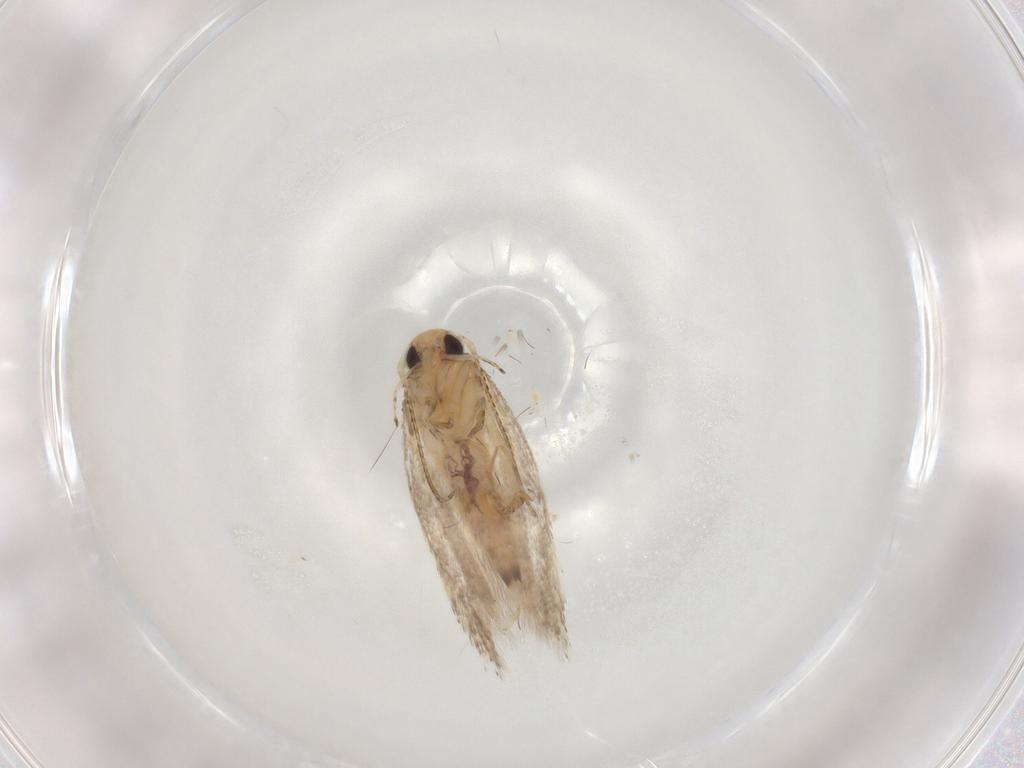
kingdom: Animalia
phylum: Arthropoda
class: Insecta
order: Lepidoptera
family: Gelechiidae
